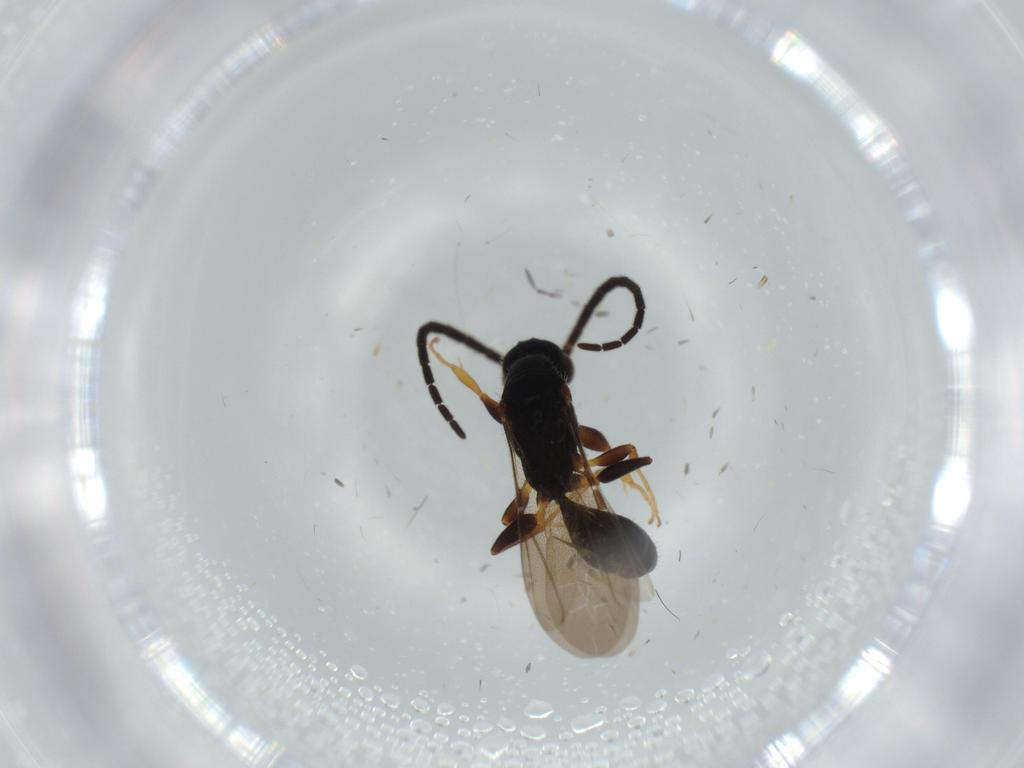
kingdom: Animalia
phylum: Arthropoda
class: Insecta
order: Hymenoptera
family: Bethylidae
